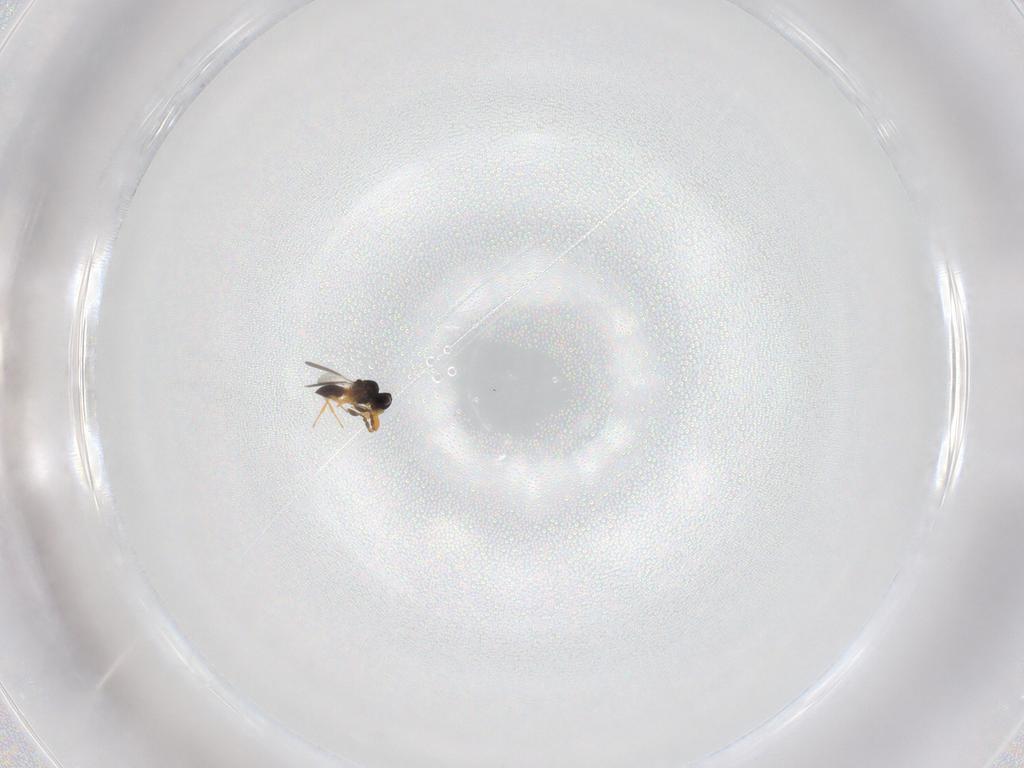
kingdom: Animalia
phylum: Arthropoda
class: Insecta
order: Hymenoptera
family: Platygastridae
